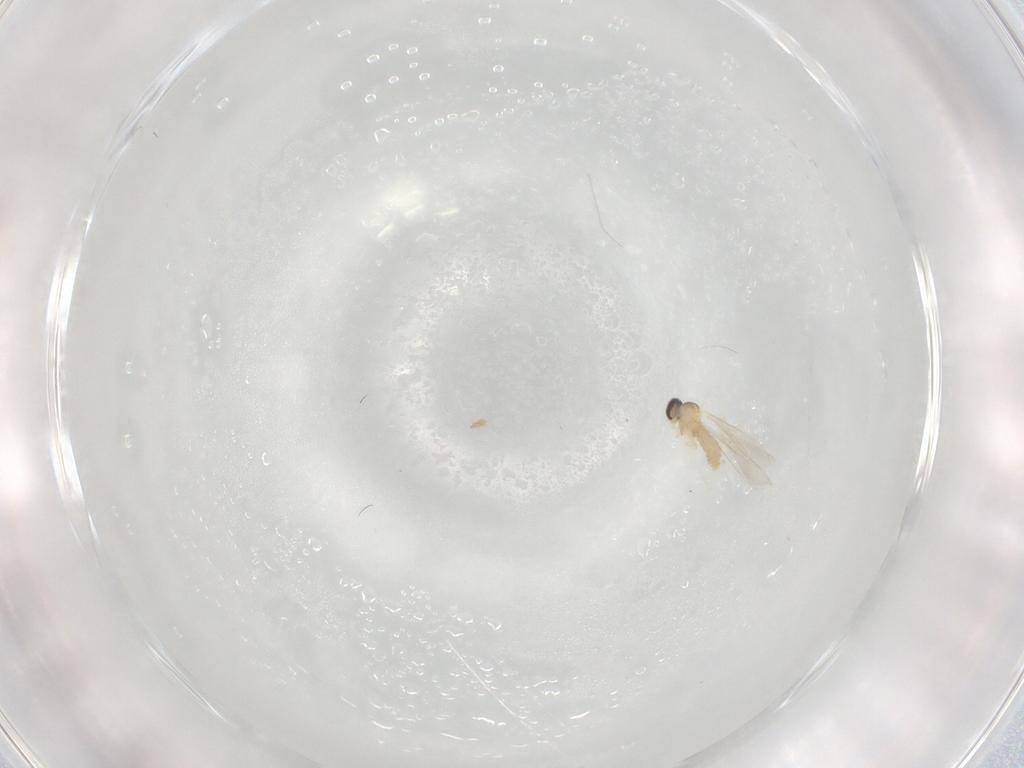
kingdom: Animalia
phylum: Arthropoda
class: Insecta
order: Diptera
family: Cecidomyiidae
